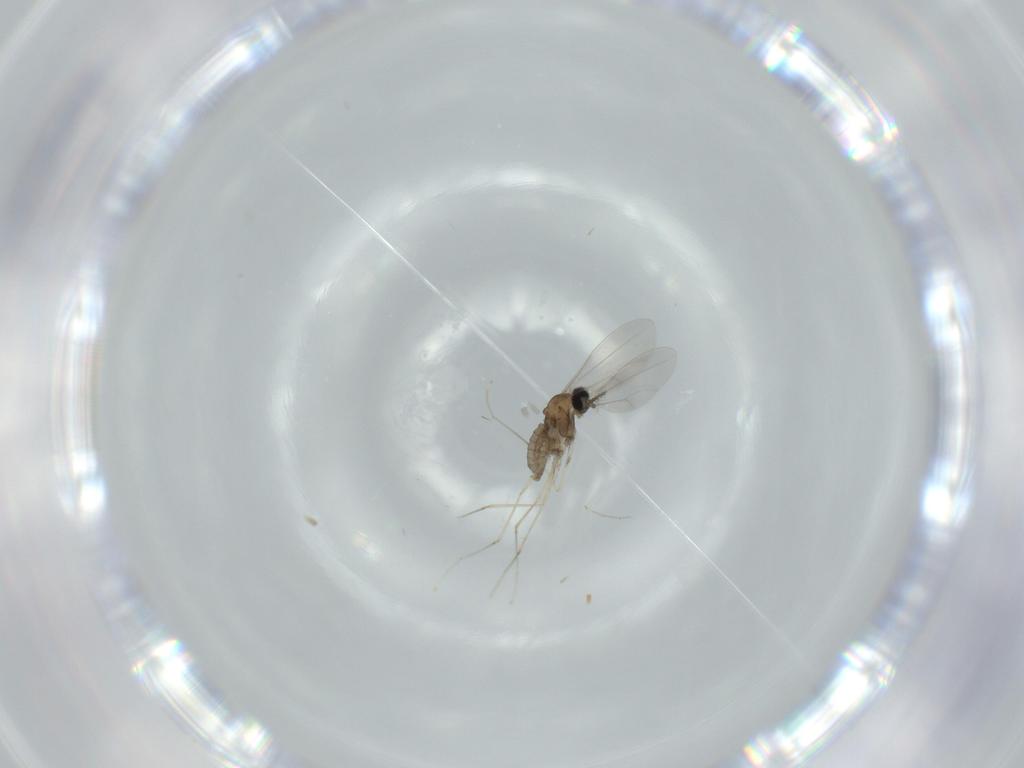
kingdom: Animalia
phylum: Arthropoda
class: Insecta
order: Diptera
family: Cecidomyiidae
